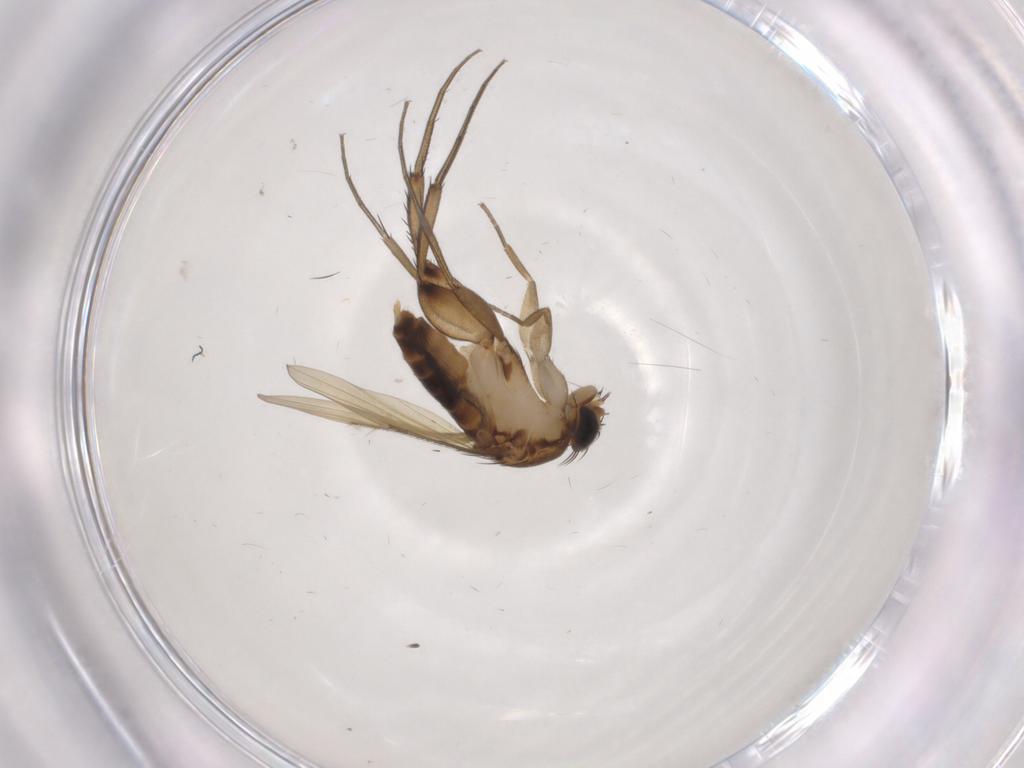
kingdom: Animalia
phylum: Arthropoda
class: Insecta
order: Diptera
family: Phoridae
